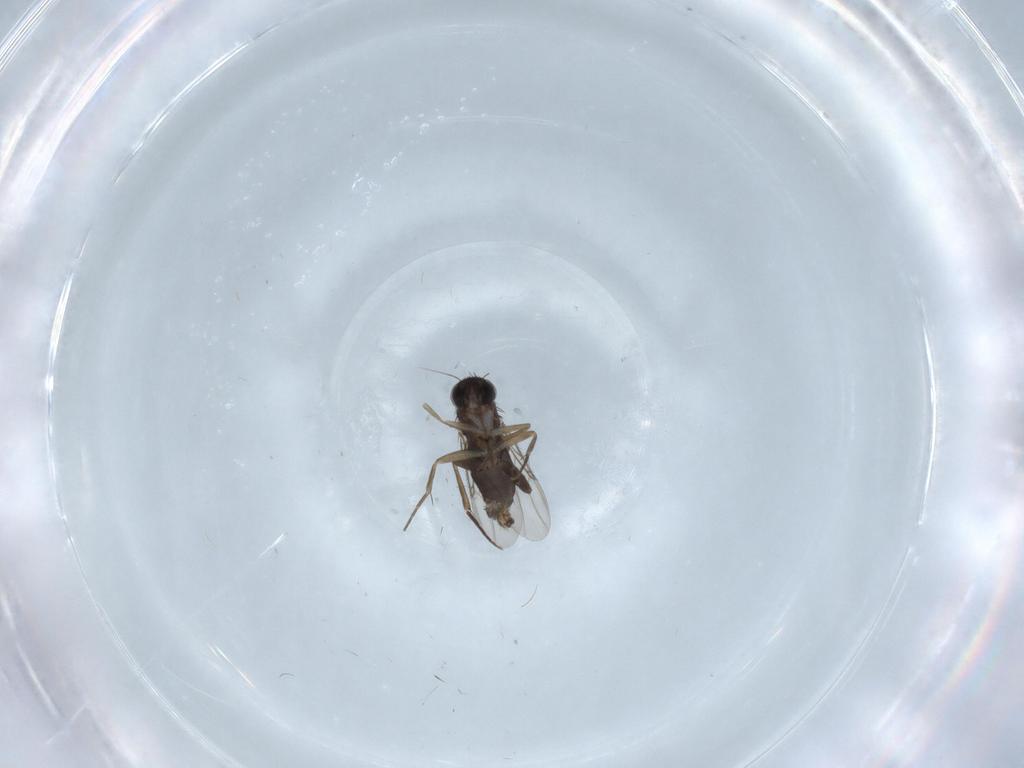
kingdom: Animalia
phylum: Arthropoda
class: Insecta
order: Diptera
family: Phoridae
